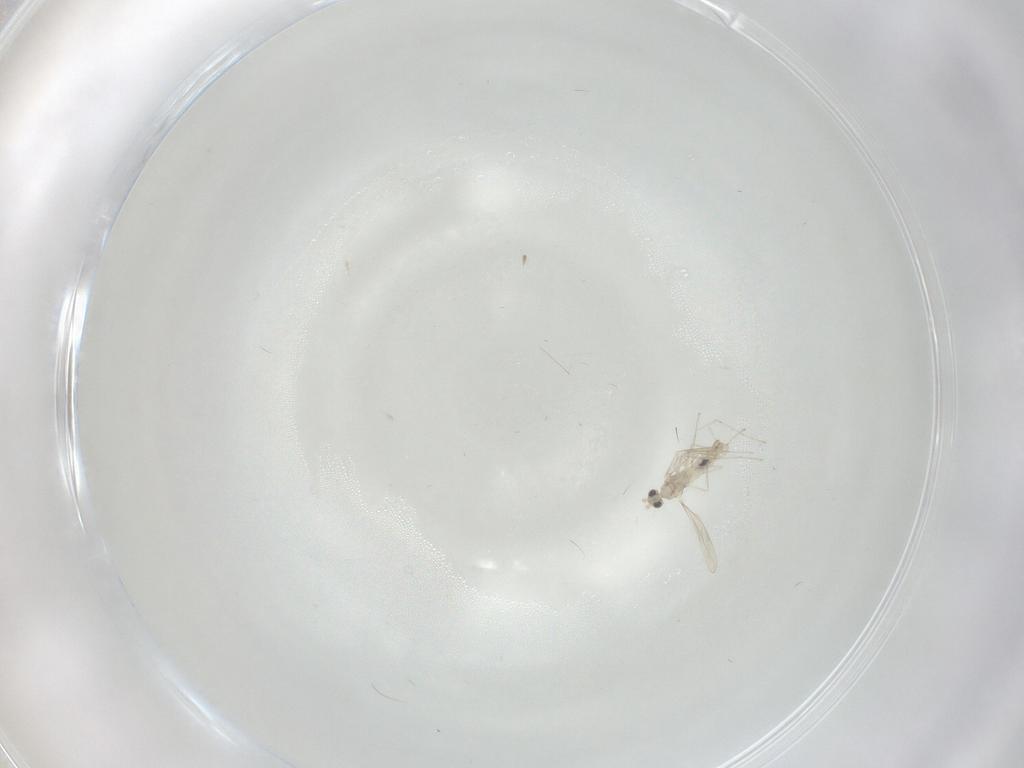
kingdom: Animalia
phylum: Arthropoda
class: Insecta
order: Diptera
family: Cecidomyiidae
